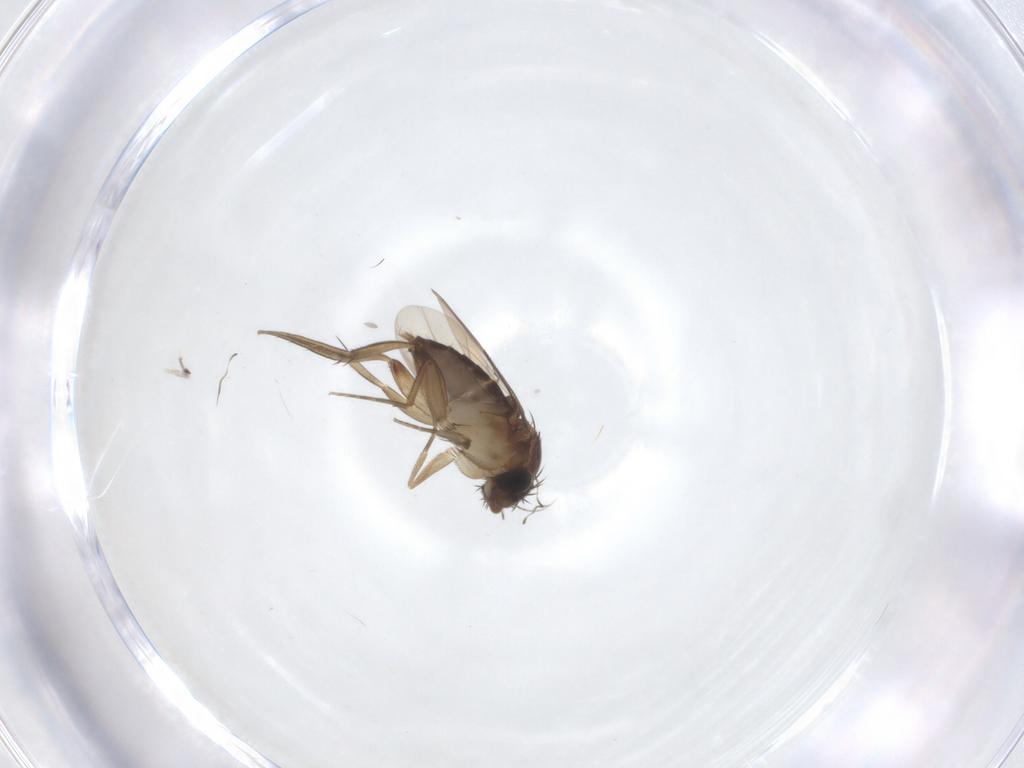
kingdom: Animalia
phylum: Arthropoda
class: Insecta
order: Diptera
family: Phoridae
